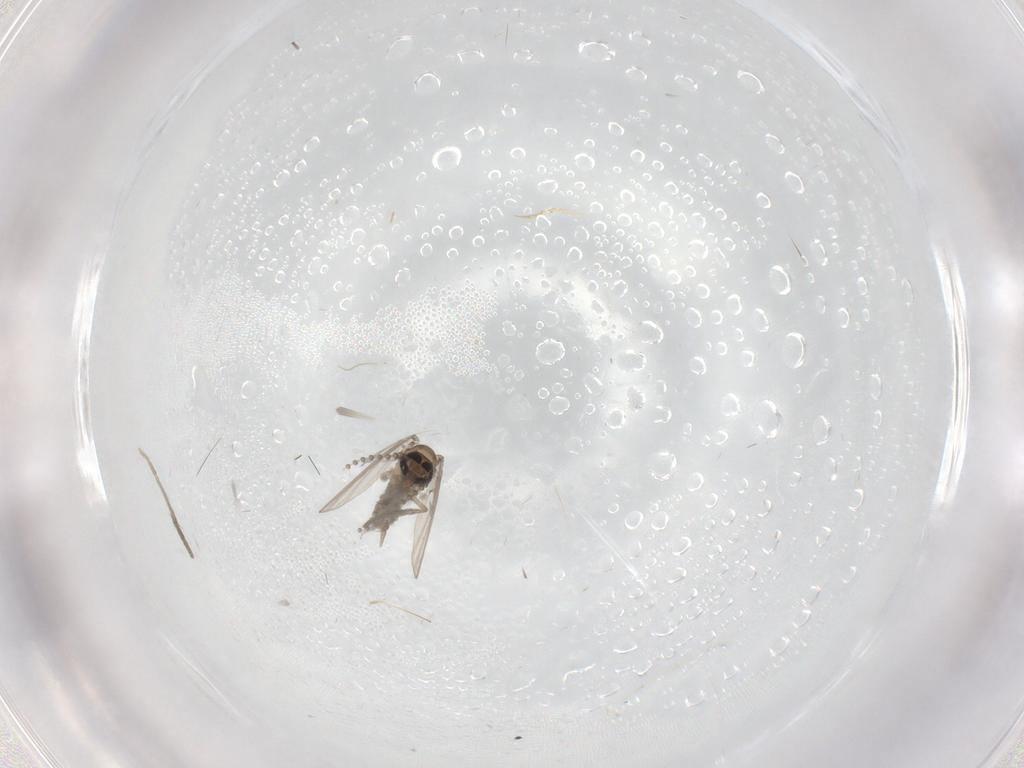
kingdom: Animalia
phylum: Arthropoda
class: Insecta
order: Diptera
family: Psychodidae
